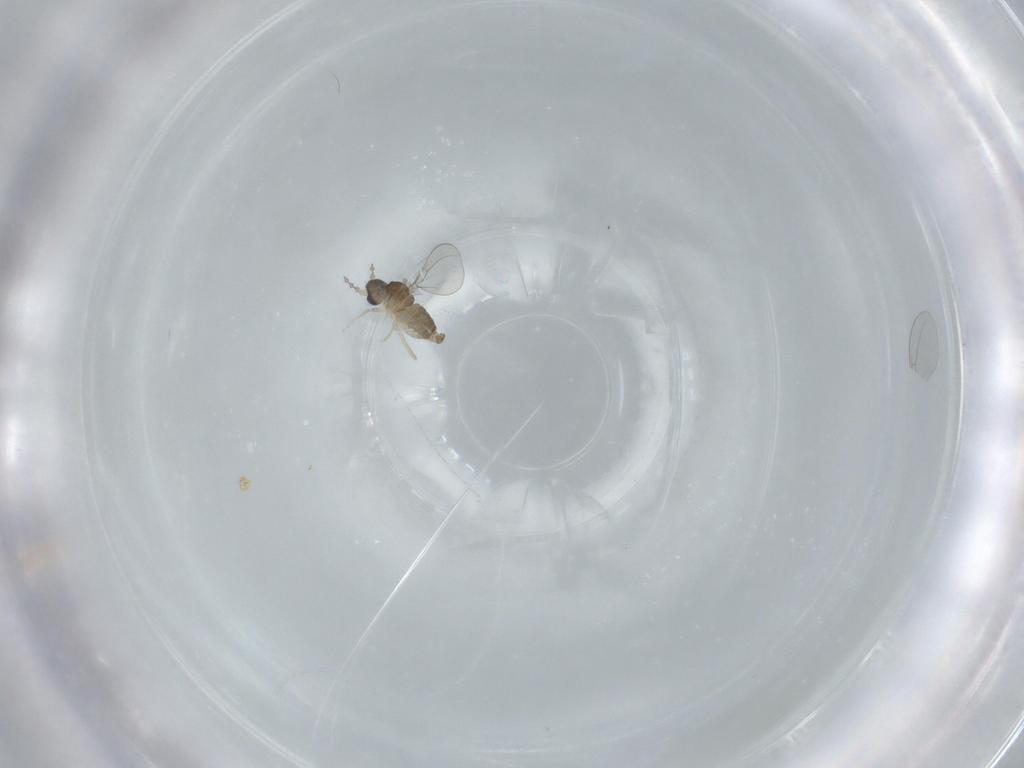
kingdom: Animalia
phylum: Arthropoda
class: Insecta
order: Diptera
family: Cecidomyiidae
